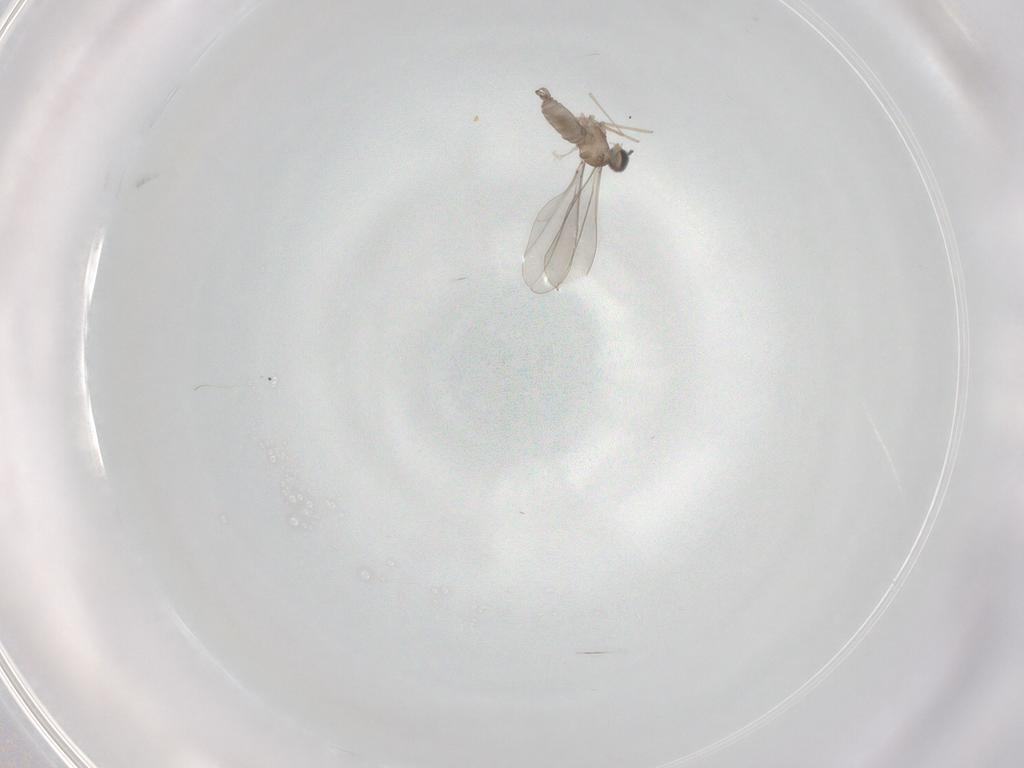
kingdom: Animalia
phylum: Arthropoda
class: Insecta
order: Diptera
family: Cecidomyiidae
